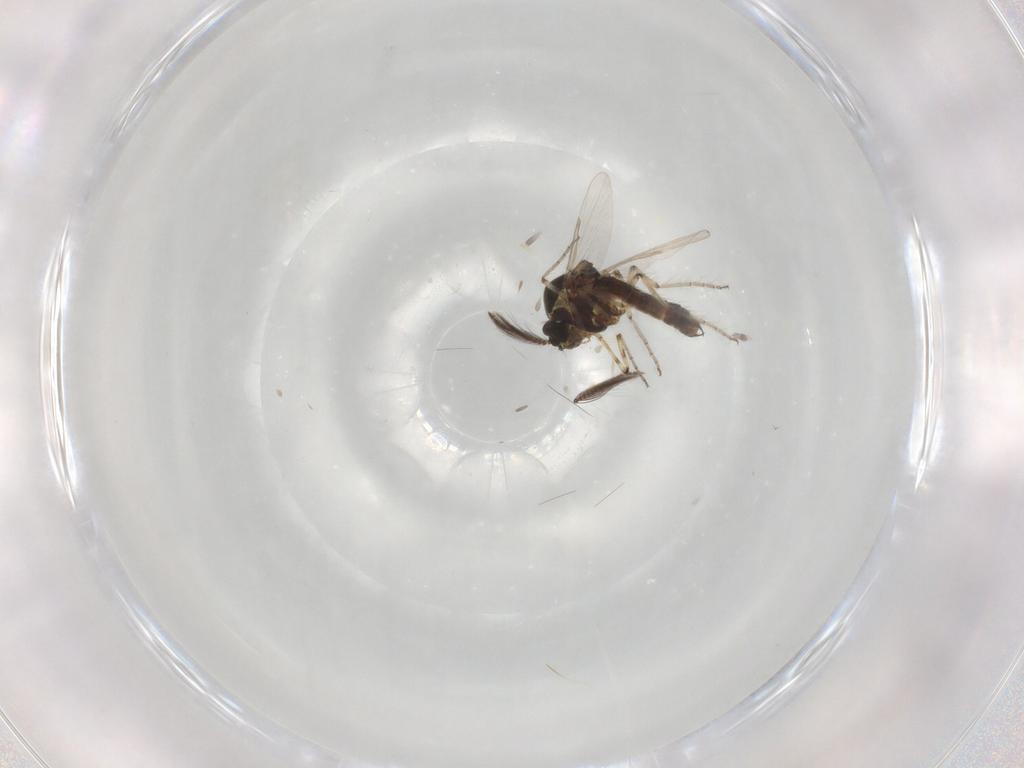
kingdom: Animalia
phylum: Arthropoda
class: Insecta
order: Diptera
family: Ceratopogonidae
